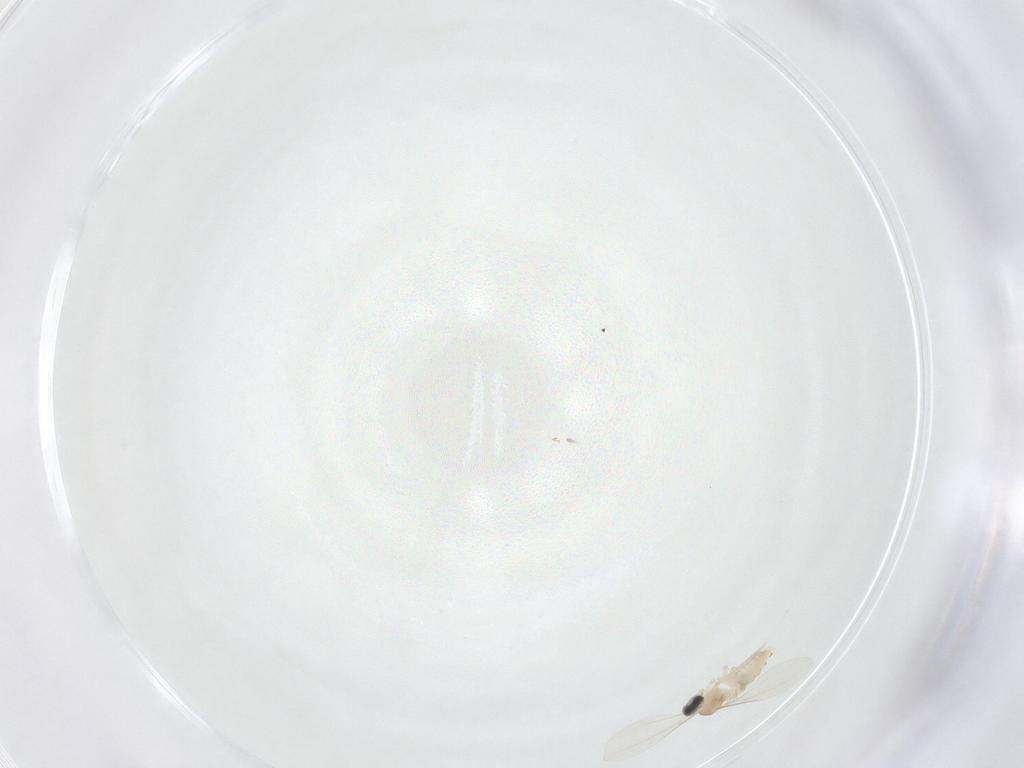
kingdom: Animalia
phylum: Arthropoda
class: Insecta
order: Diptera
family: Cecidomyiidae
